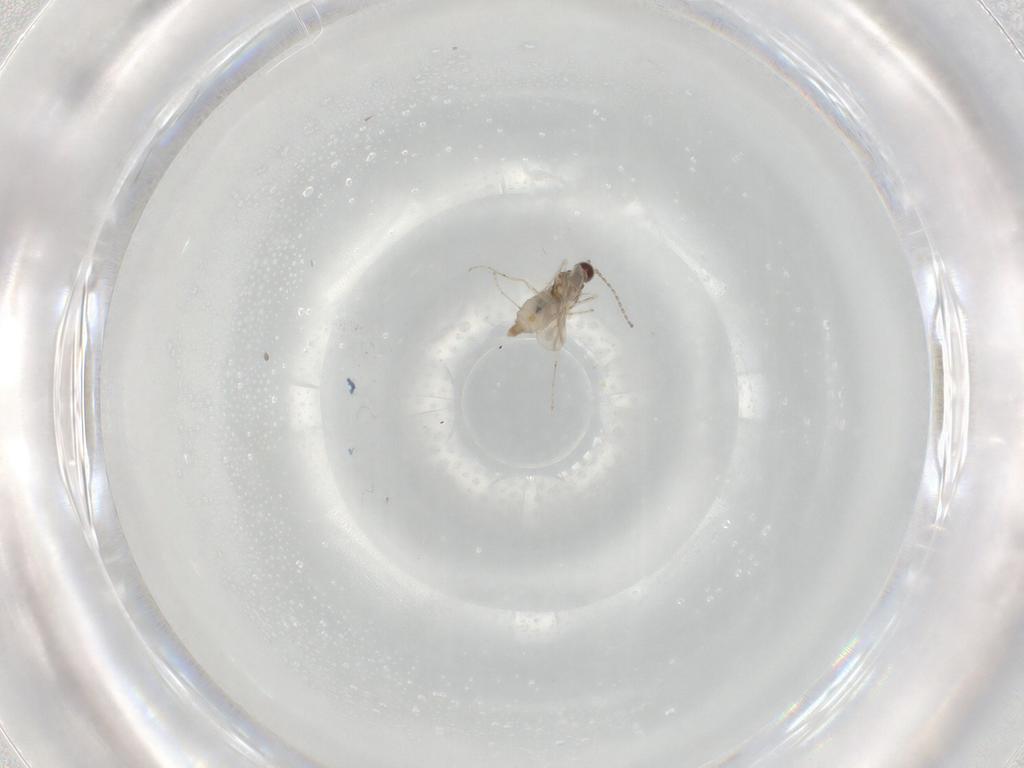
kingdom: Animalia
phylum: Arthropoda
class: Insecta
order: Diptera
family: Cecidomyiidae
